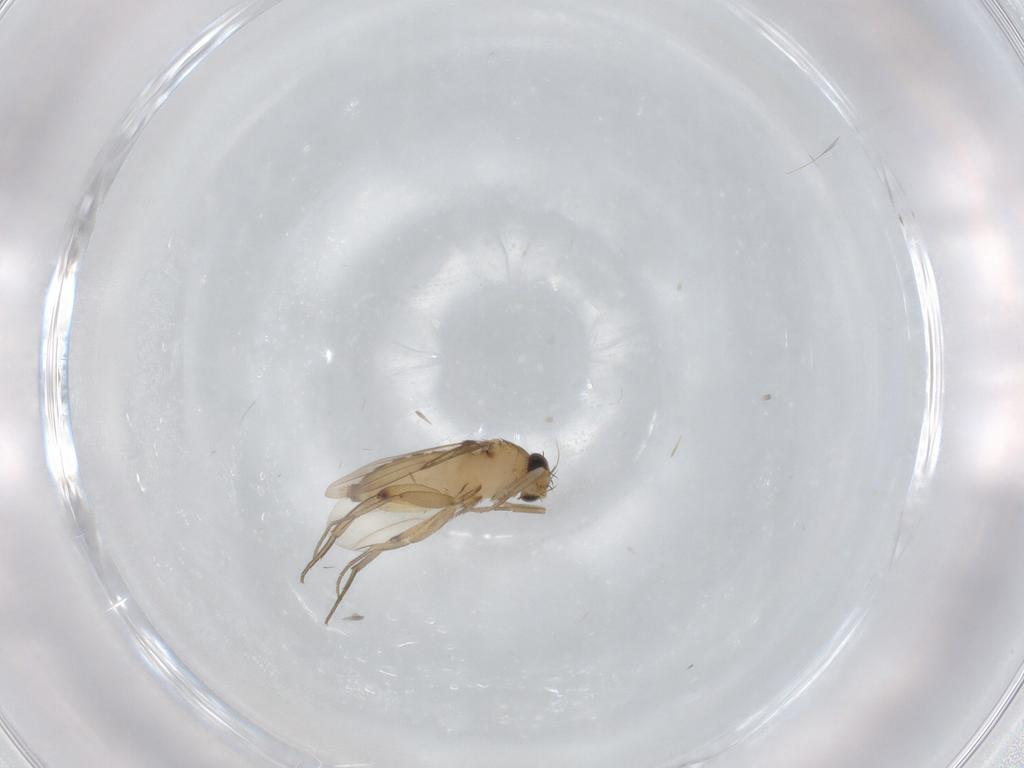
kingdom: Animalia
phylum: Arthropoda
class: Insecta
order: Diptera
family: Phoridae
